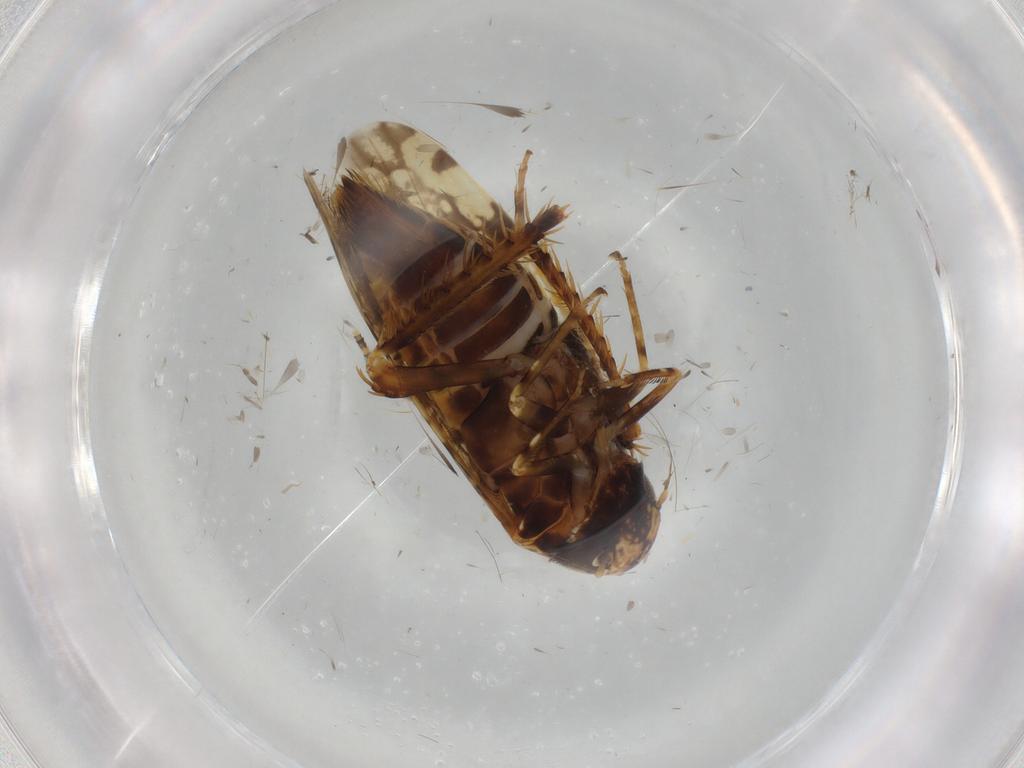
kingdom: Animalia
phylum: Arthropoda
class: Insecta
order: Hemiptera
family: Cicadellidae
